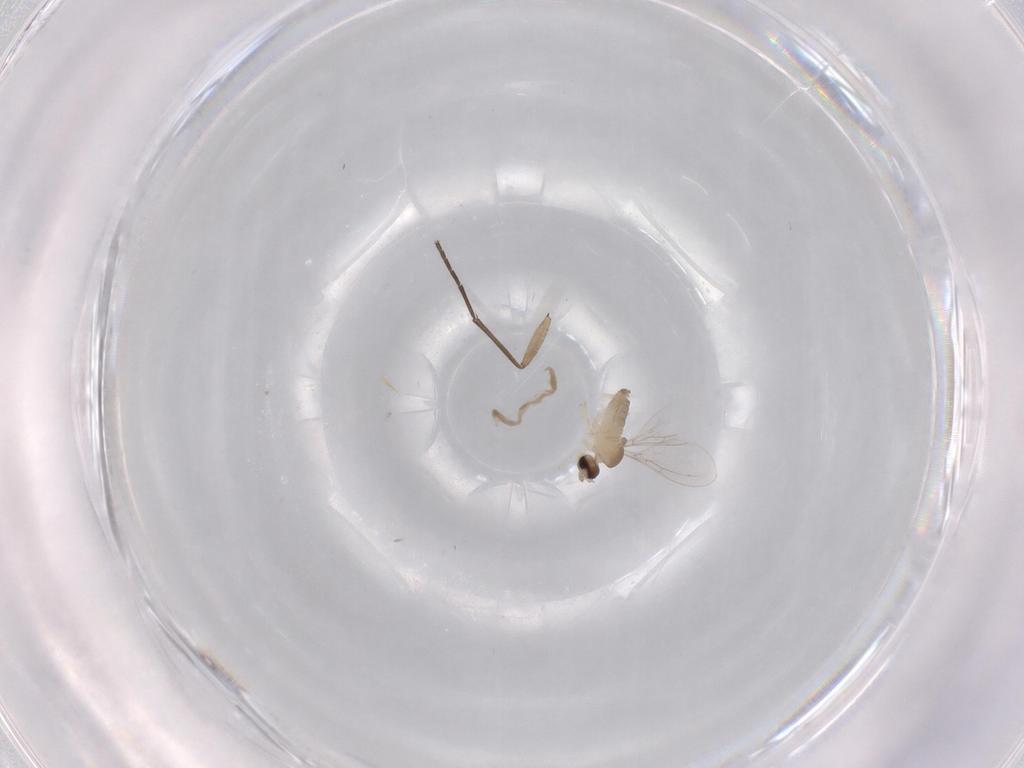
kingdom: Animalia
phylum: Arthropoda
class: Insecta
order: Diptera
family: Cecidomyiidae
